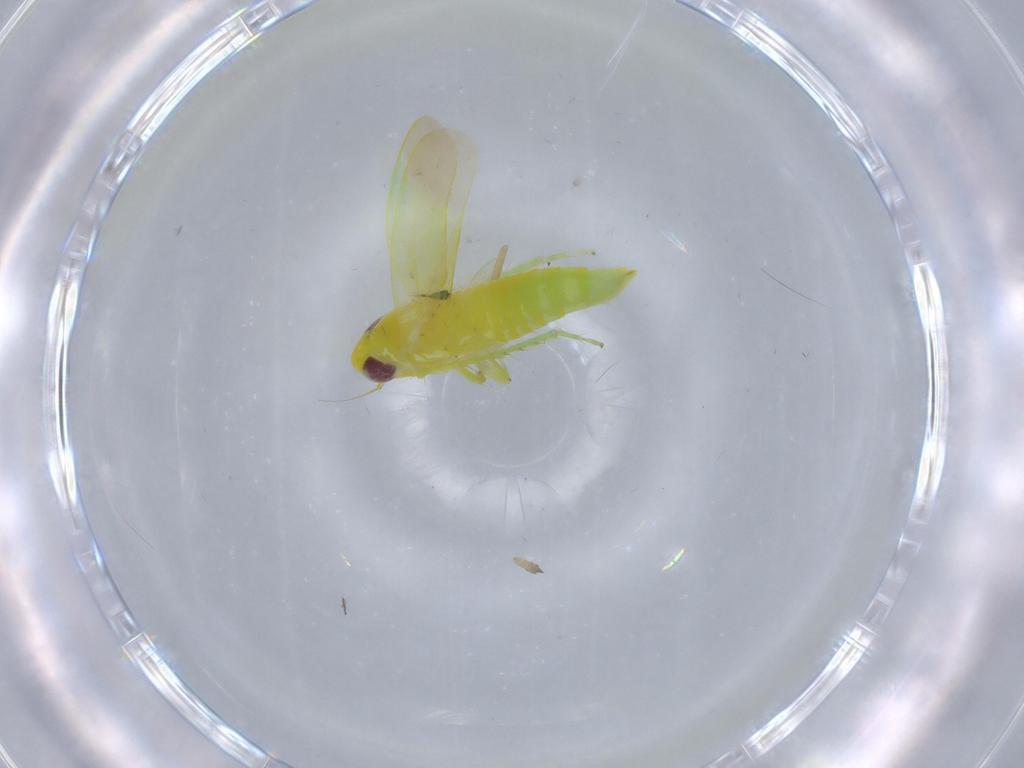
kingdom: Animalia
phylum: Arthropoda
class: Insecta
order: Hemiptera
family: Cicadellidae
